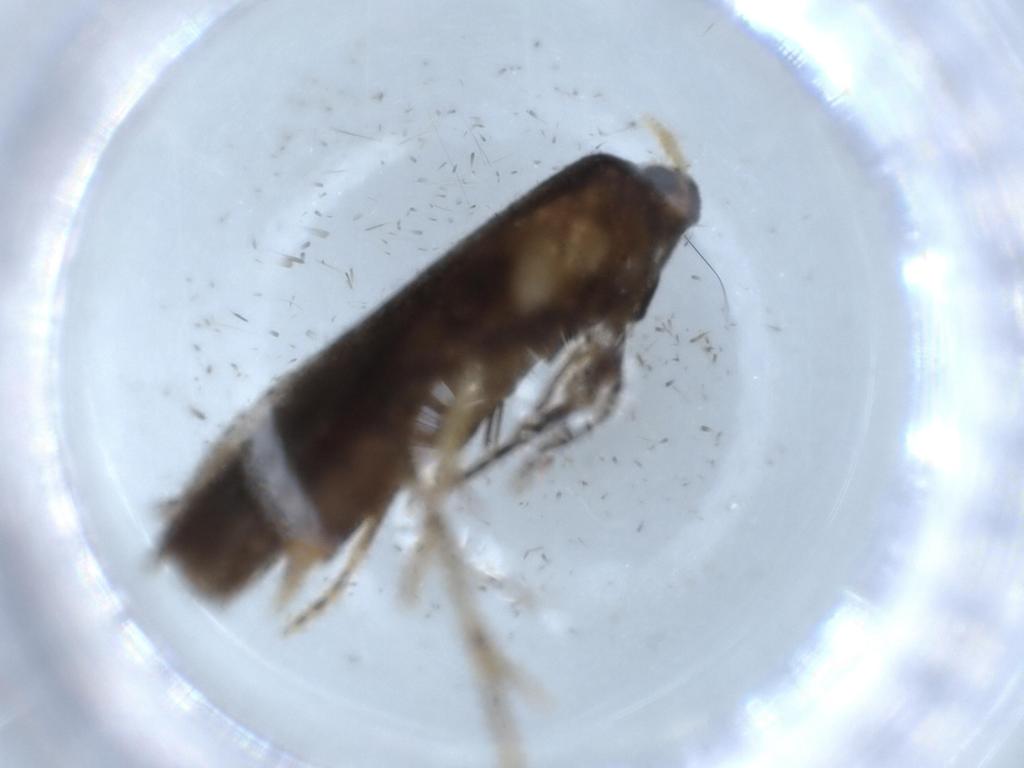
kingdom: Animalia
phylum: Arthropoda
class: Insecta
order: Lepidoptera
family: Lecithoceridae
